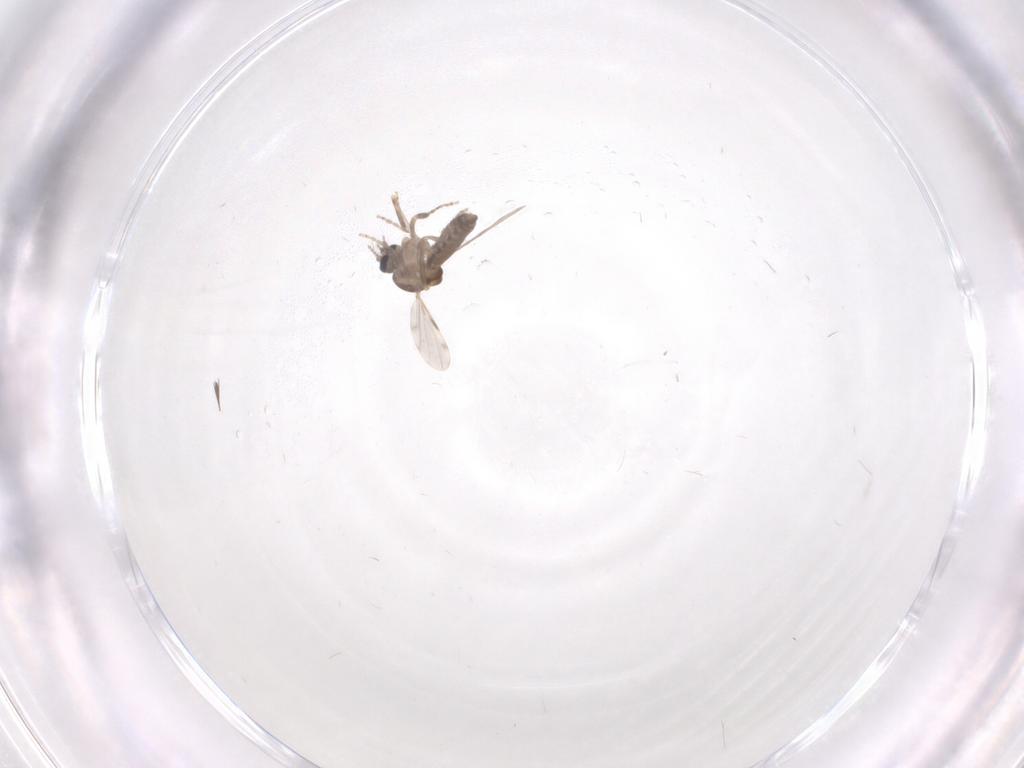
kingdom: Animalia
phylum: Arthropoda
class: Insecta
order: Diptera
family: Ceratopogonidae
